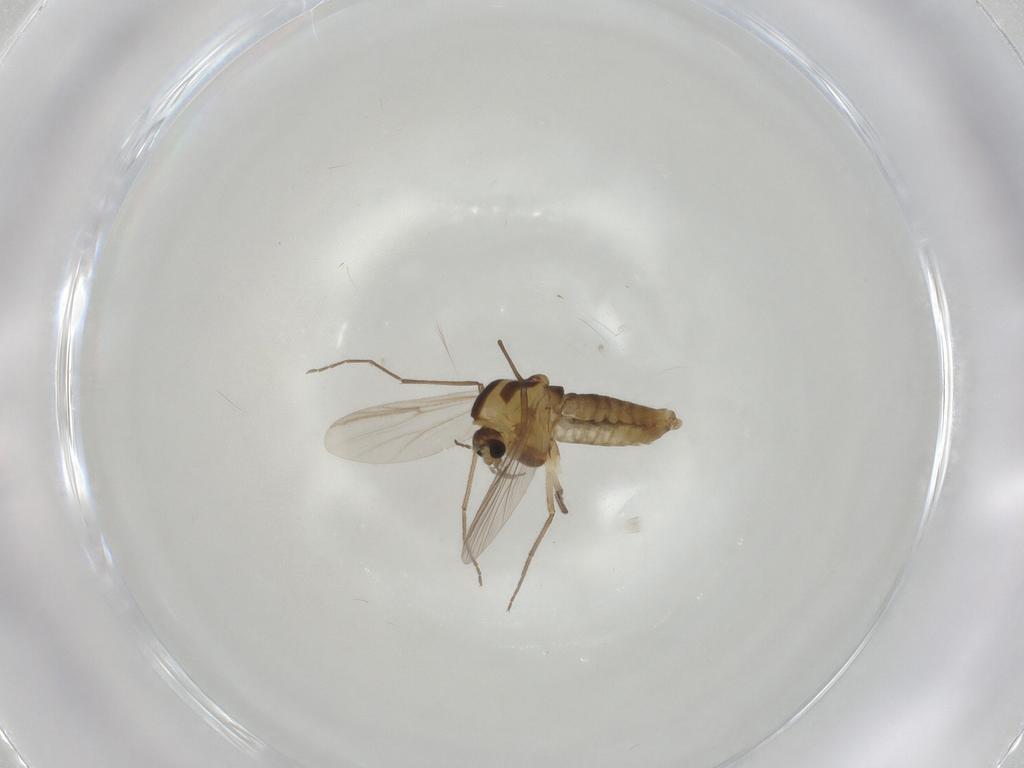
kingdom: Animalia
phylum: Arthropoda
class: Insecta
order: Diptera
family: Chironomidae
